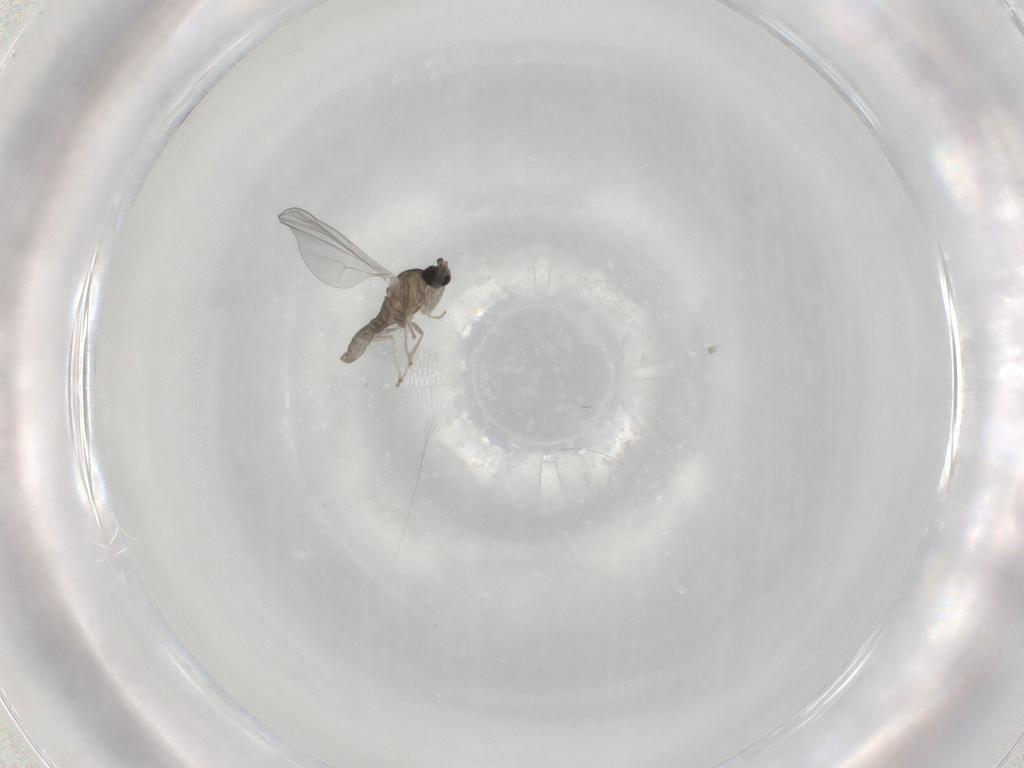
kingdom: Animalia
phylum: Arthropoda
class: Insecta
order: Diptera
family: Cecidomyiidae
